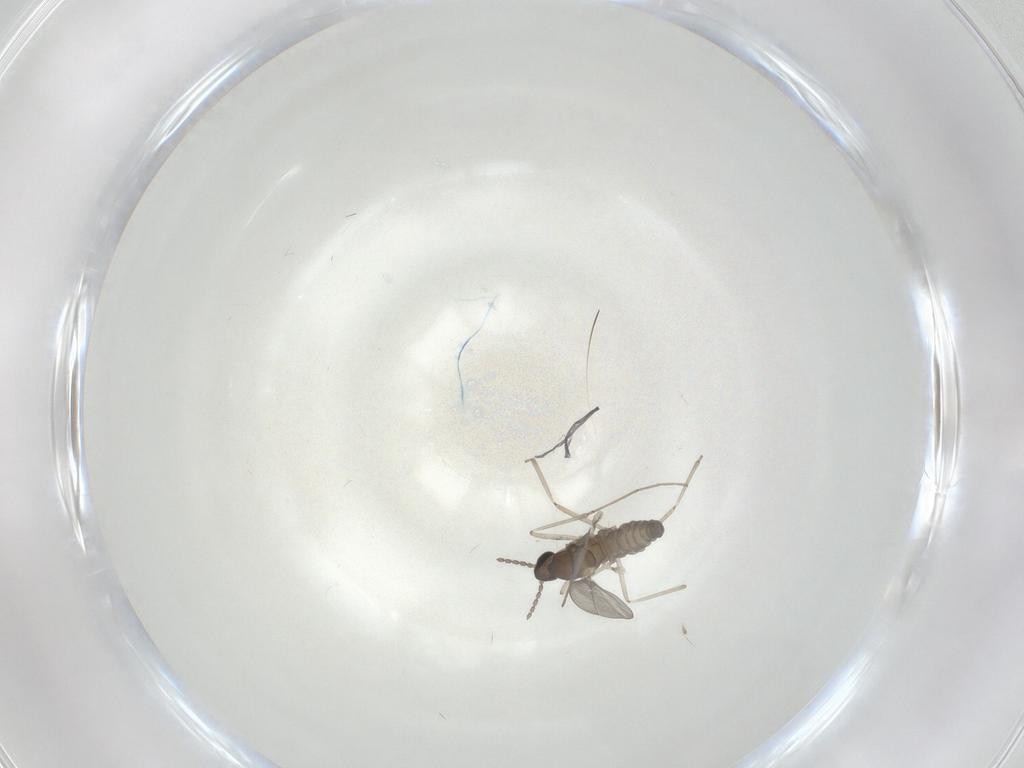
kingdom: Animalia
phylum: Arthropoda
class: Insecta
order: Diptera
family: Cecidomyiidae
